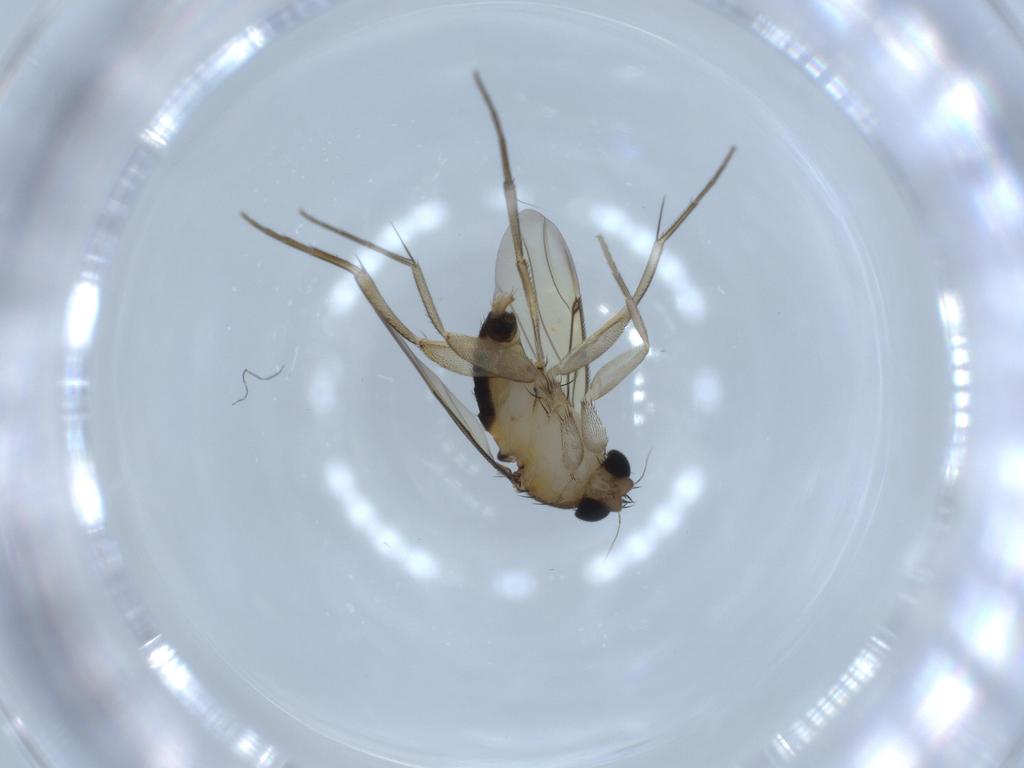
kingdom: Animalia
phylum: Arthropoda
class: Insecta
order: Diptera
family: Phoridae
